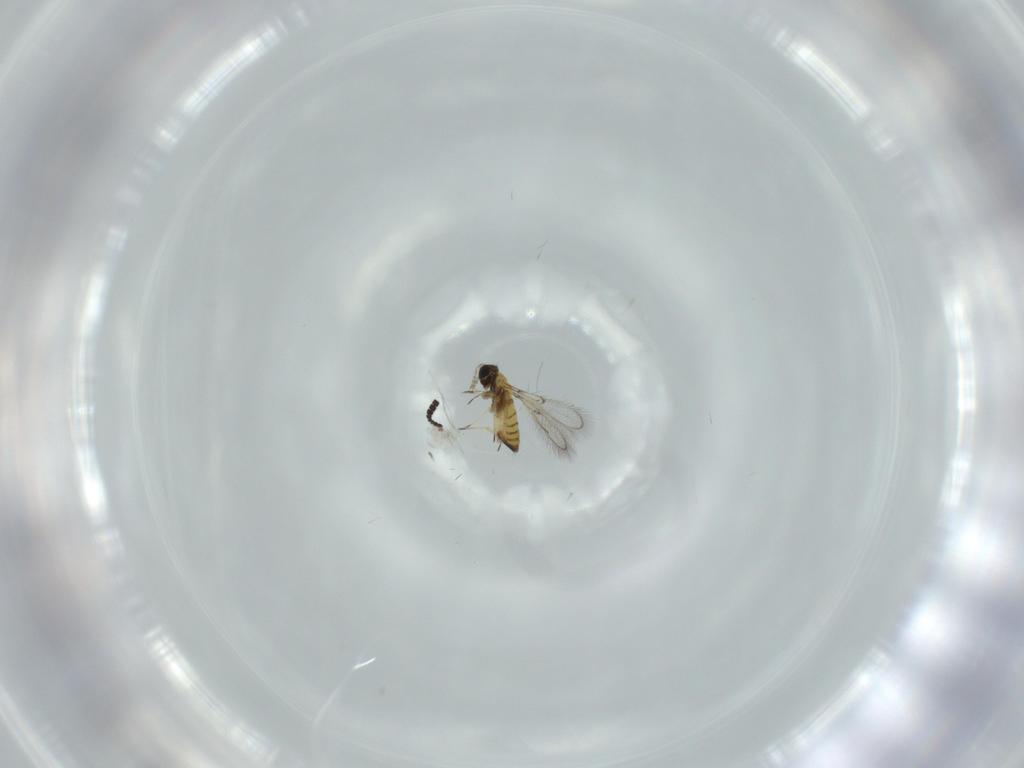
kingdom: Animalia
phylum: Arthropoda
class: Insecta
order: Hymenoptera
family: Scelionidae
